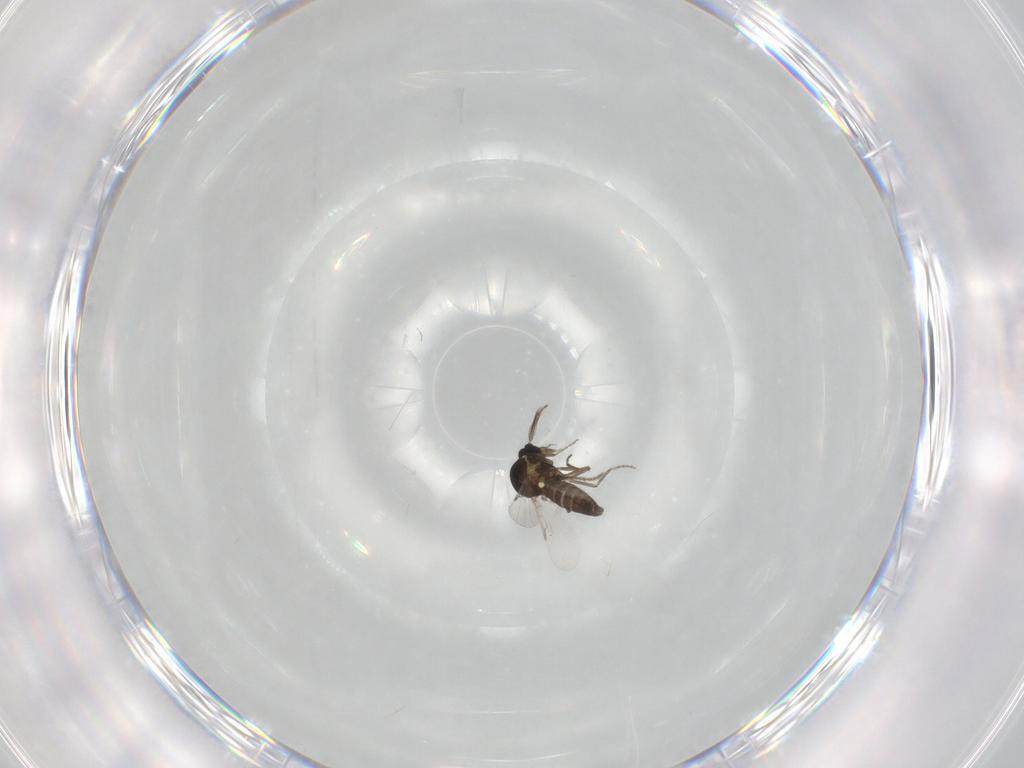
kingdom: Animalia
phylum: Arthropoda
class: Insecta
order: Diptera
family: Ceratopogonidae
